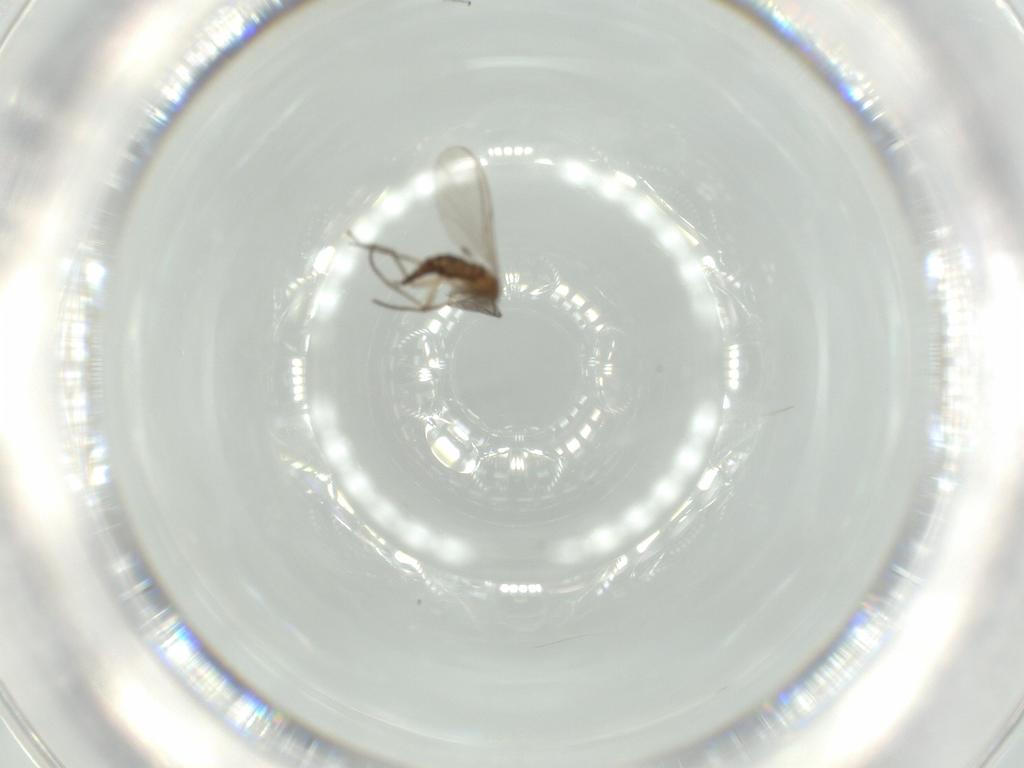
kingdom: Animalia
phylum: Arthropoda
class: Insecta
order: Diptera
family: Sciaridae
